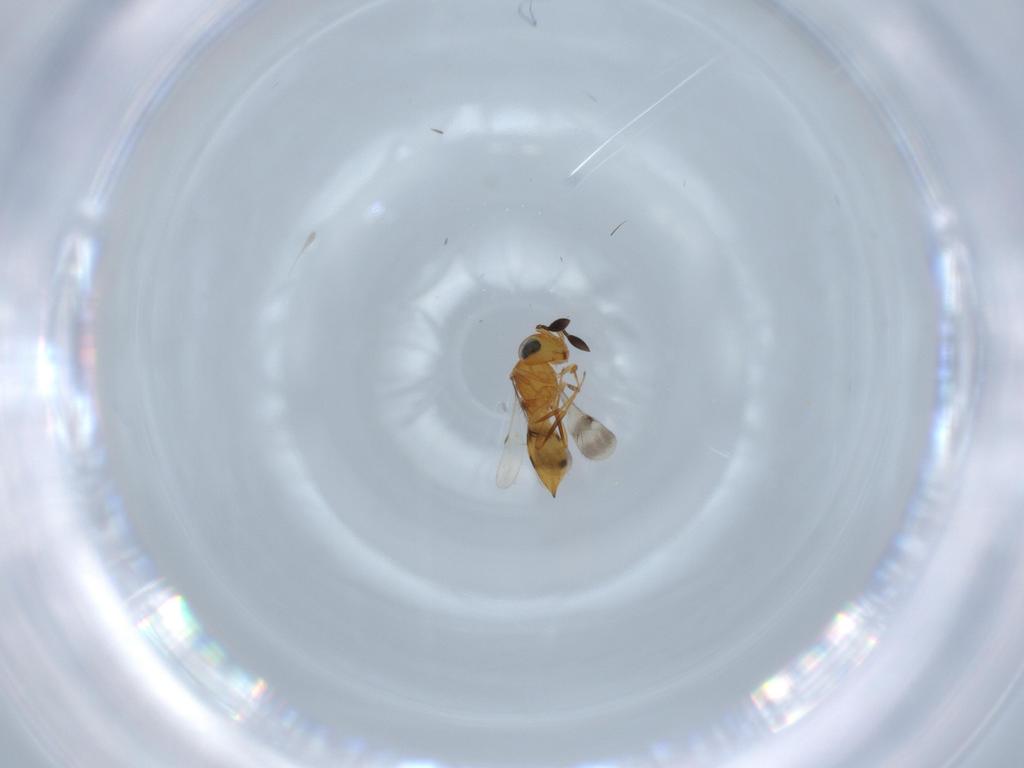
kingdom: Animalia
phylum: Arthropoda
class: Insecta
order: Hymenoptera
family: Scelionidae
